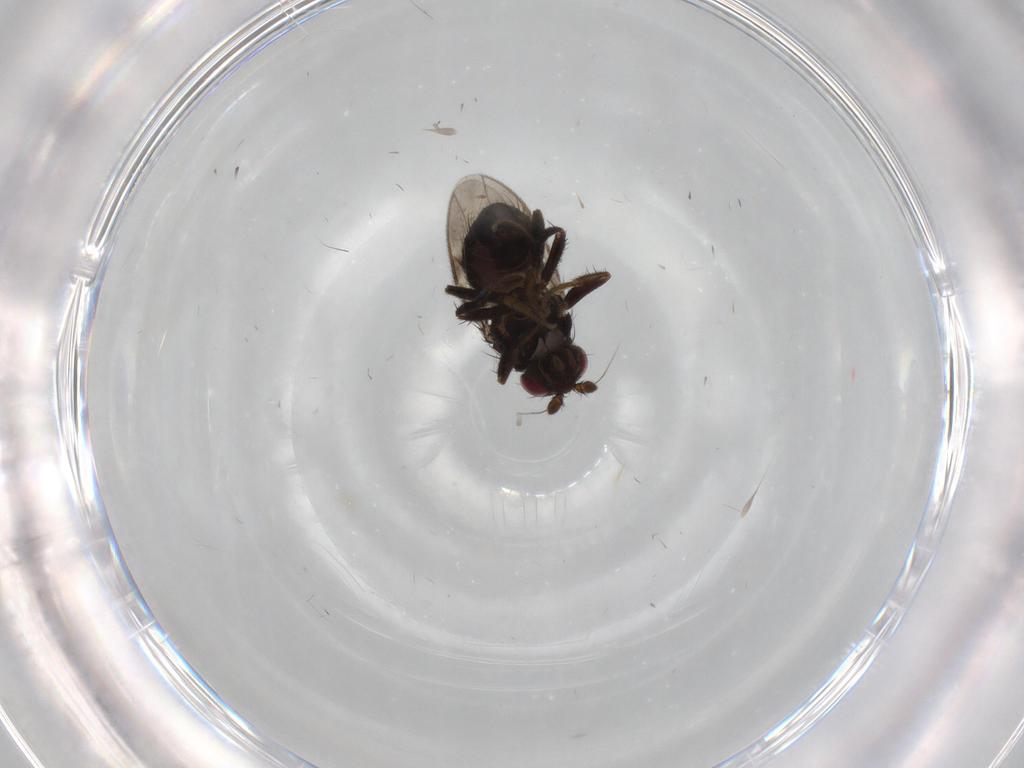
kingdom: Animalia
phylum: Arthropoda
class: Insecta
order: Diptera
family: Sphaeroceridae
